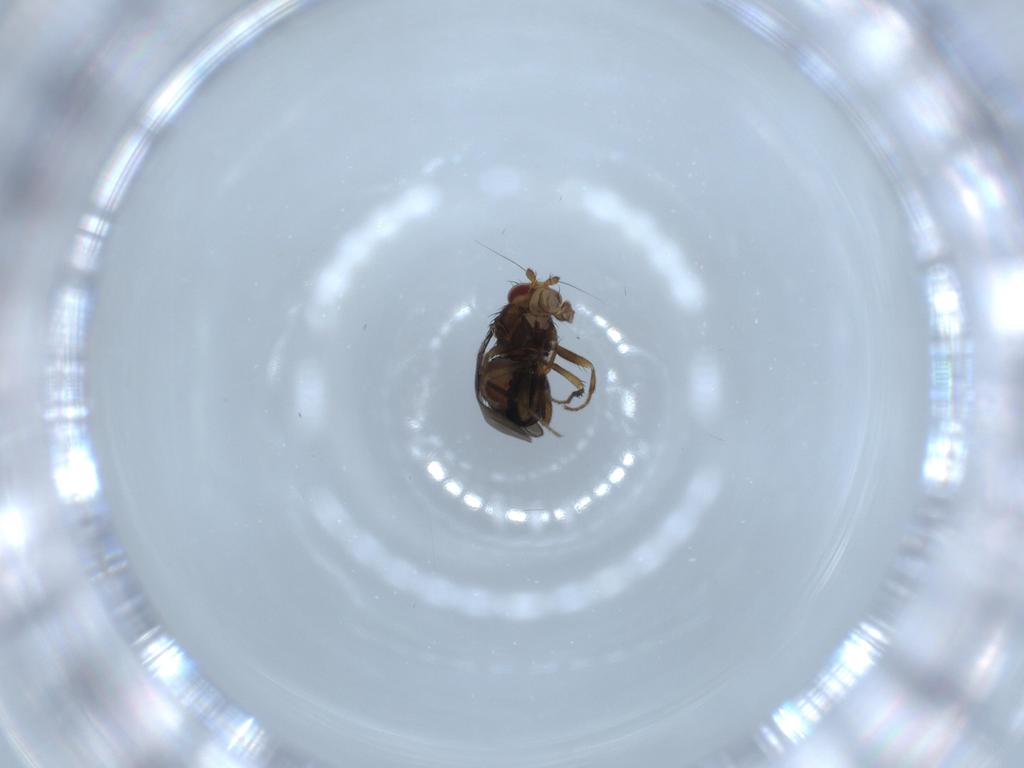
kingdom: Animalia
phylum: Arthropoda
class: Insecta
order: Diptera
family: Sphaeroceridae
